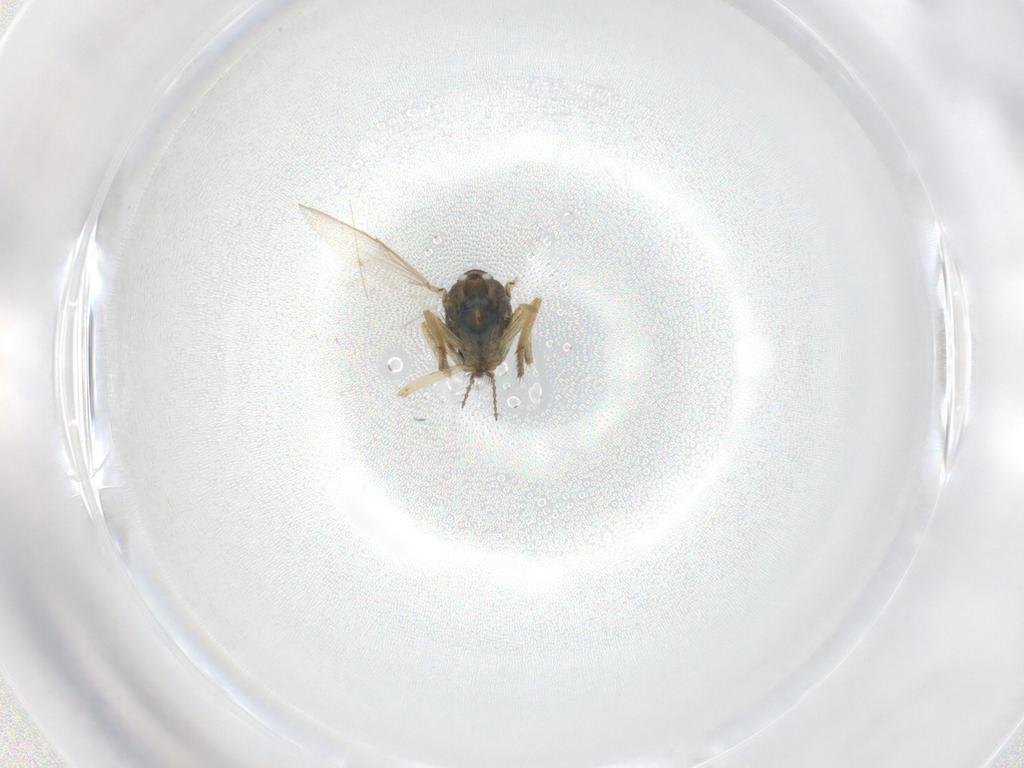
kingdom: Animalia
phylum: Arthropoda
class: Insecta
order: Diptera
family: Ceratopogonidae
